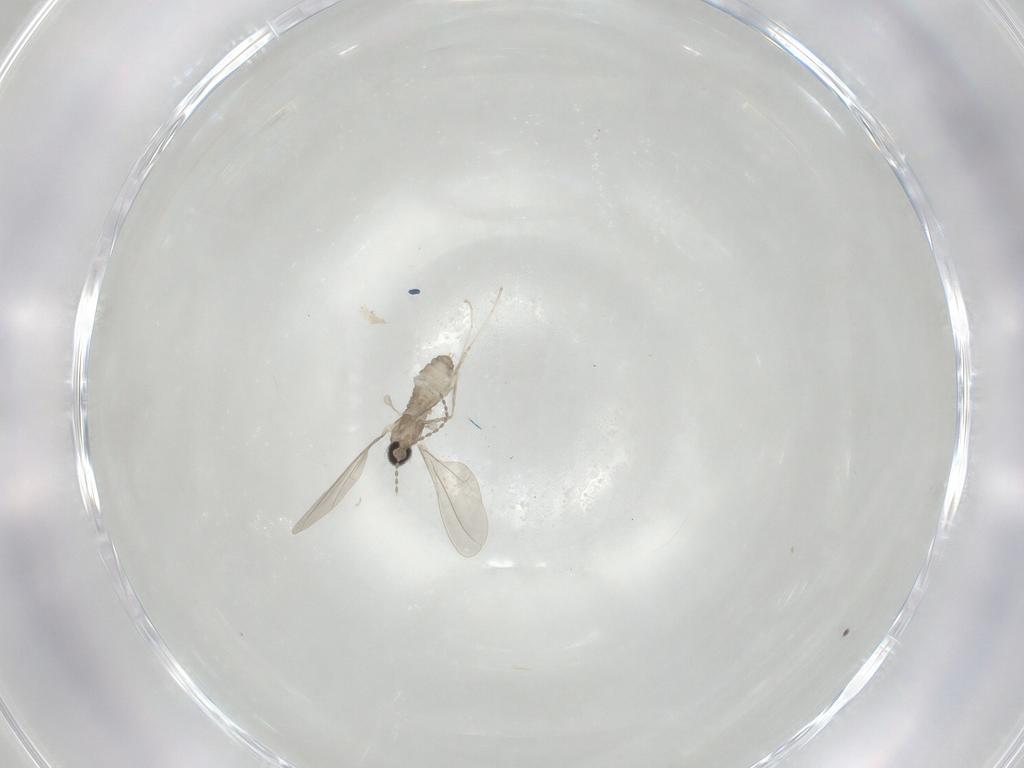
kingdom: Animalia
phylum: Arthropoda
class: Insecta
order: Diptera
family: Cecidomyiidae
